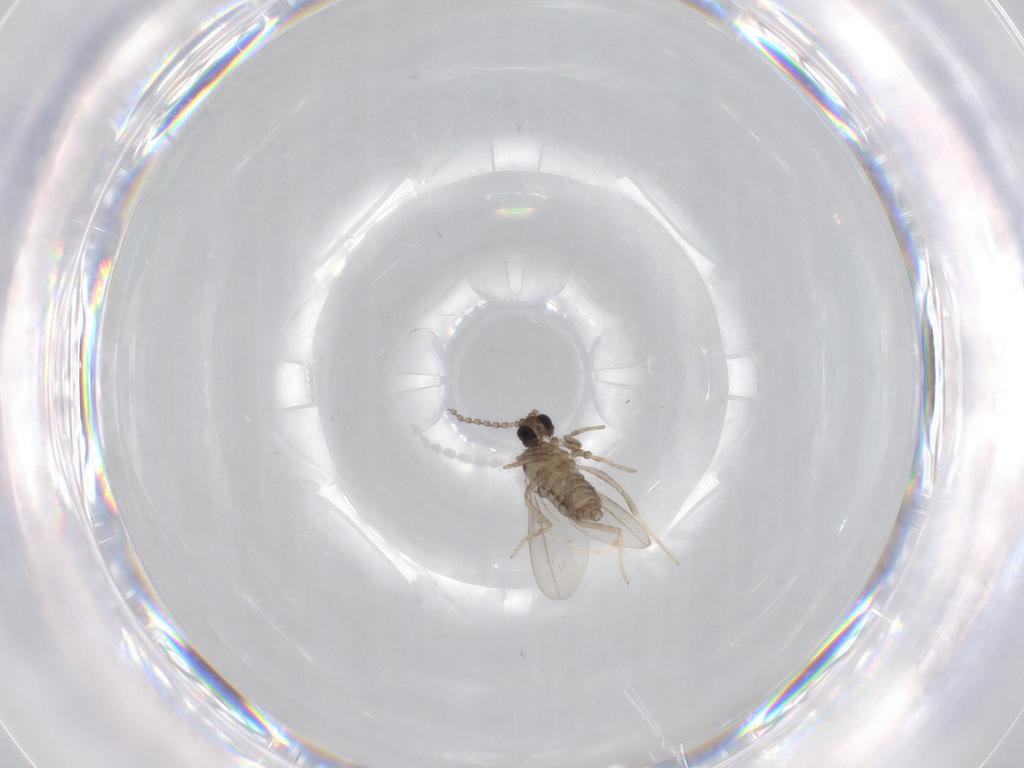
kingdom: Animalia
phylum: Arthropoda
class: Insecta
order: Diptera
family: Cecidomyiidae
